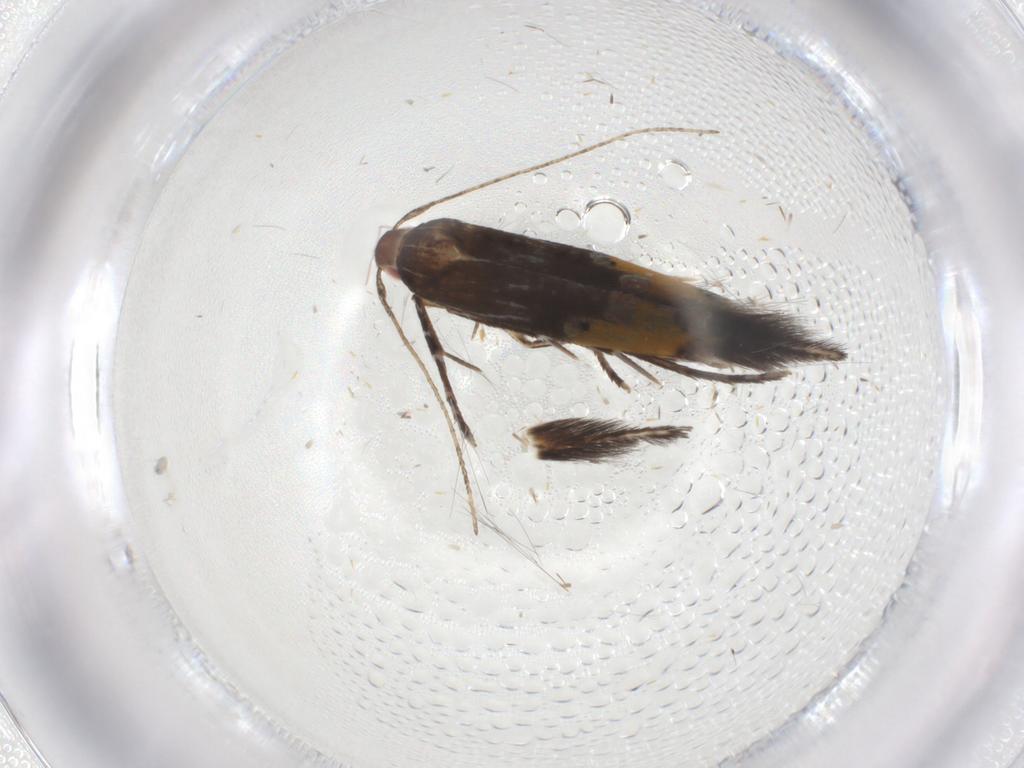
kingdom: Animalia
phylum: Arthropoda
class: Insecta
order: Lepidoptera
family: Cosmopterigidae
